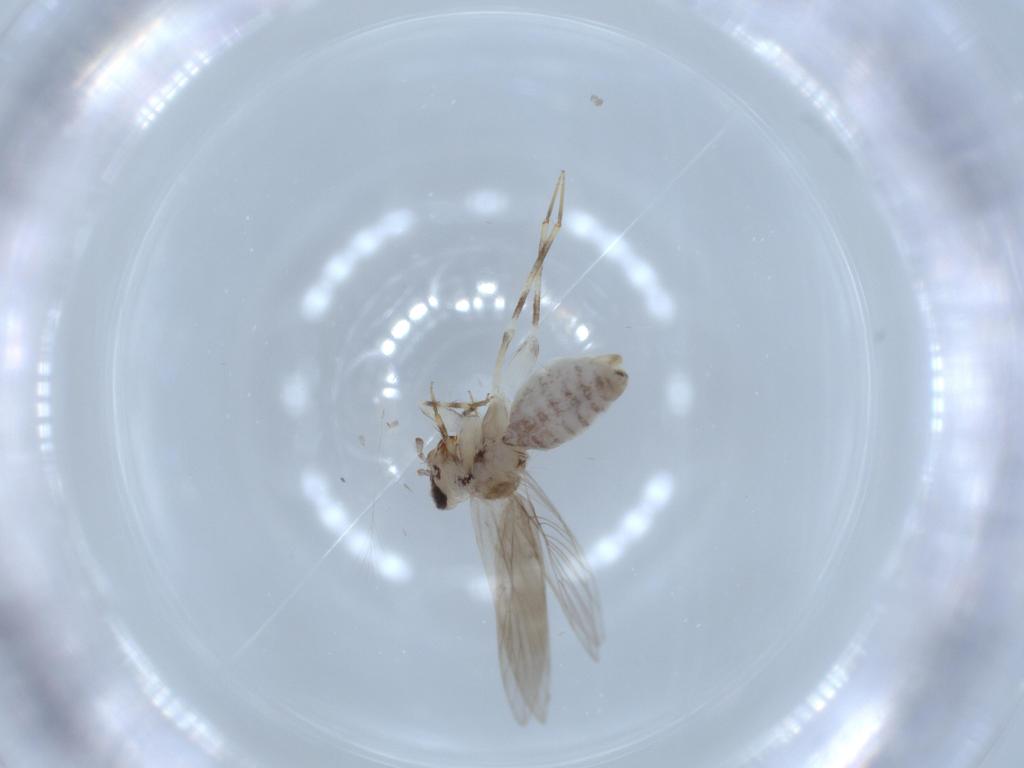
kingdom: Animalia
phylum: Arthropoda
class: Insecta
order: Psocodea
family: Lepidopsocidae
